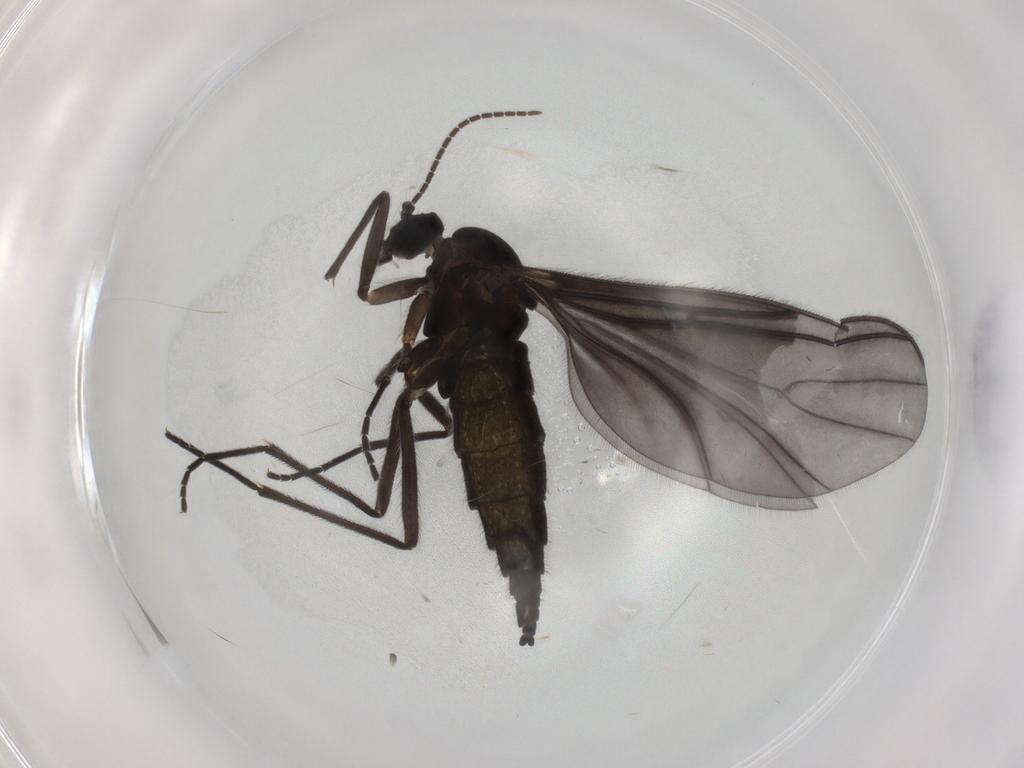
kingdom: Animalia
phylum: Arthropoda
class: Insecta
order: Diptera
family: Sciaridae
